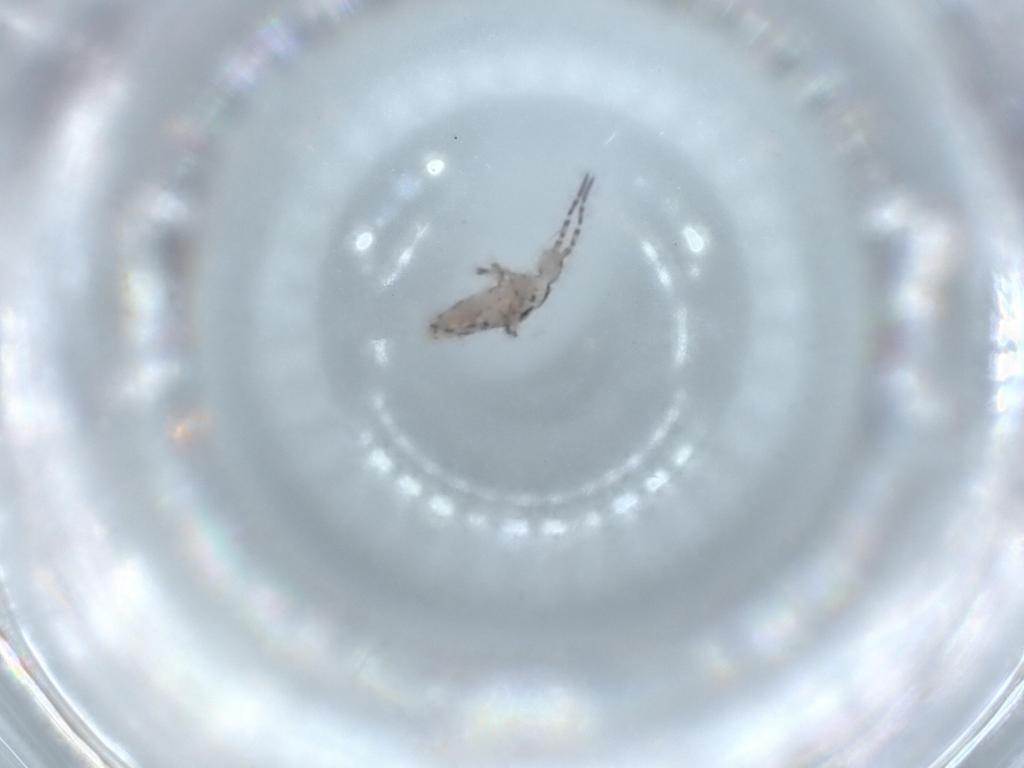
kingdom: Animalia
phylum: Arthropoda
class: Collembola
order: Entomobryomorpha
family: Entomobryidae
